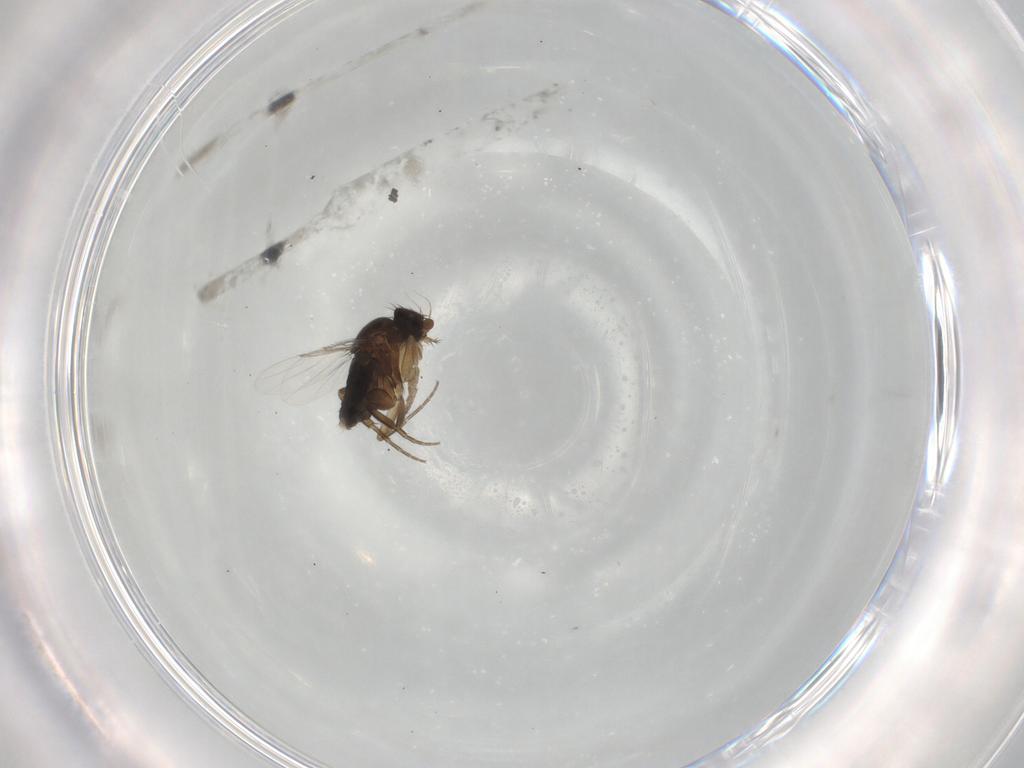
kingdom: Animalia
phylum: Arthropoda
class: Insecta
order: Diptera
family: Phoridae
